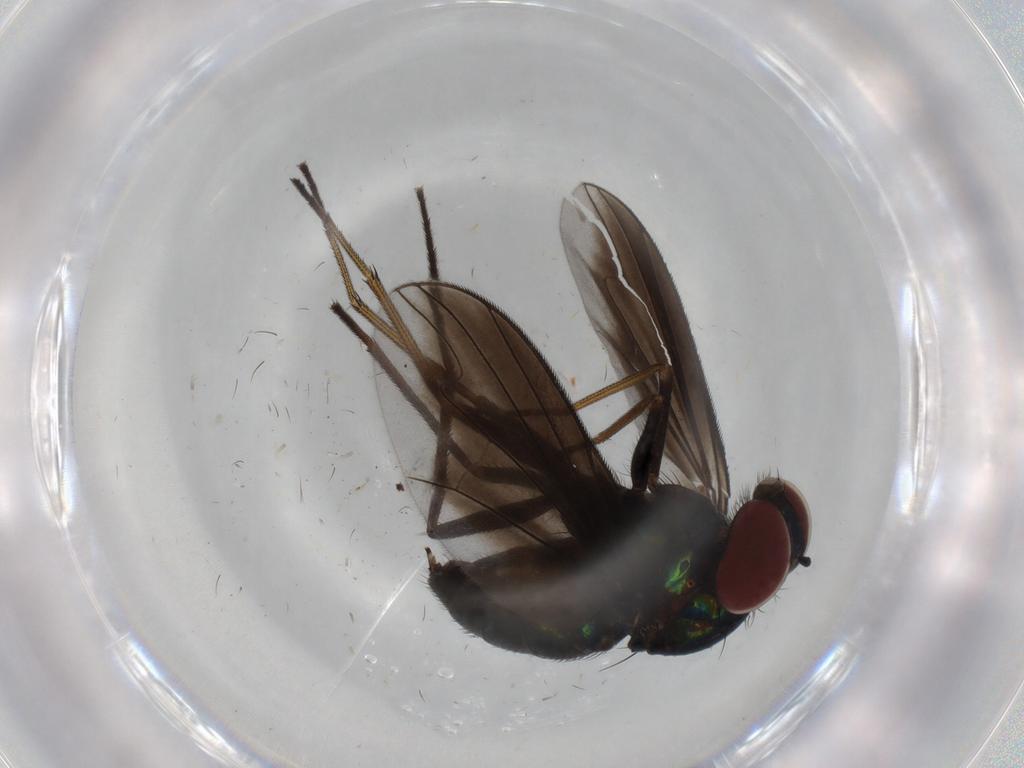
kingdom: Animalia
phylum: Arthropoda
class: Insecta
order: Diptera
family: Dolichopodidae
